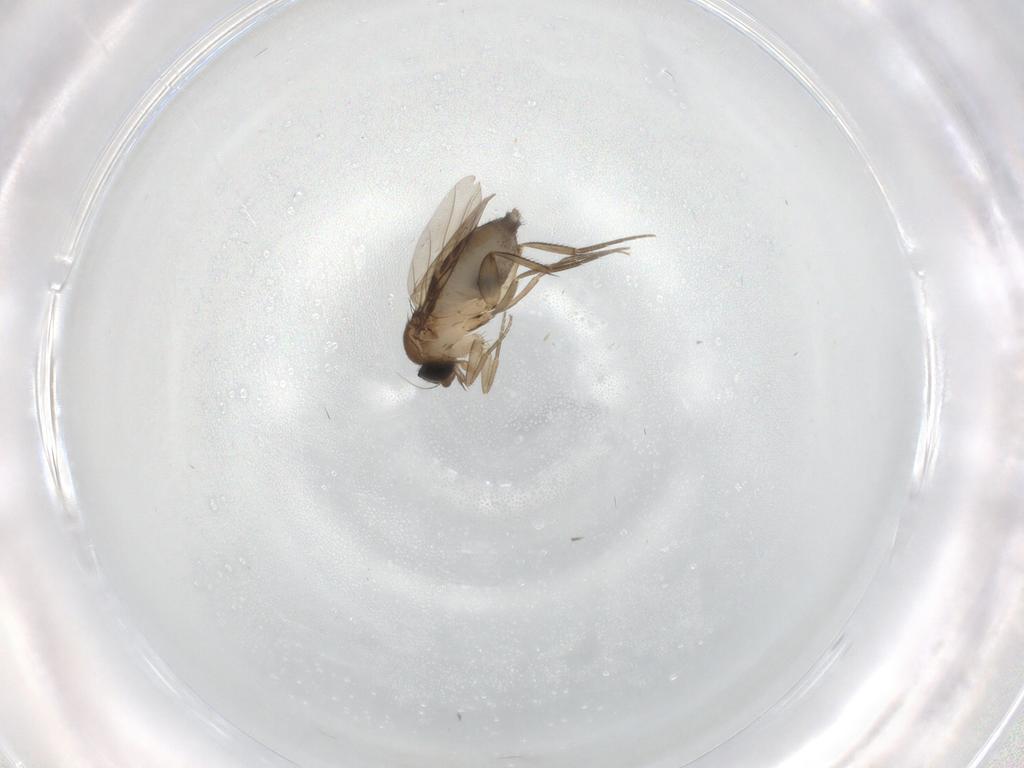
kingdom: Animalia
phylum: Arthropoda
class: Insecta
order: Diptera
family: Phoridae
